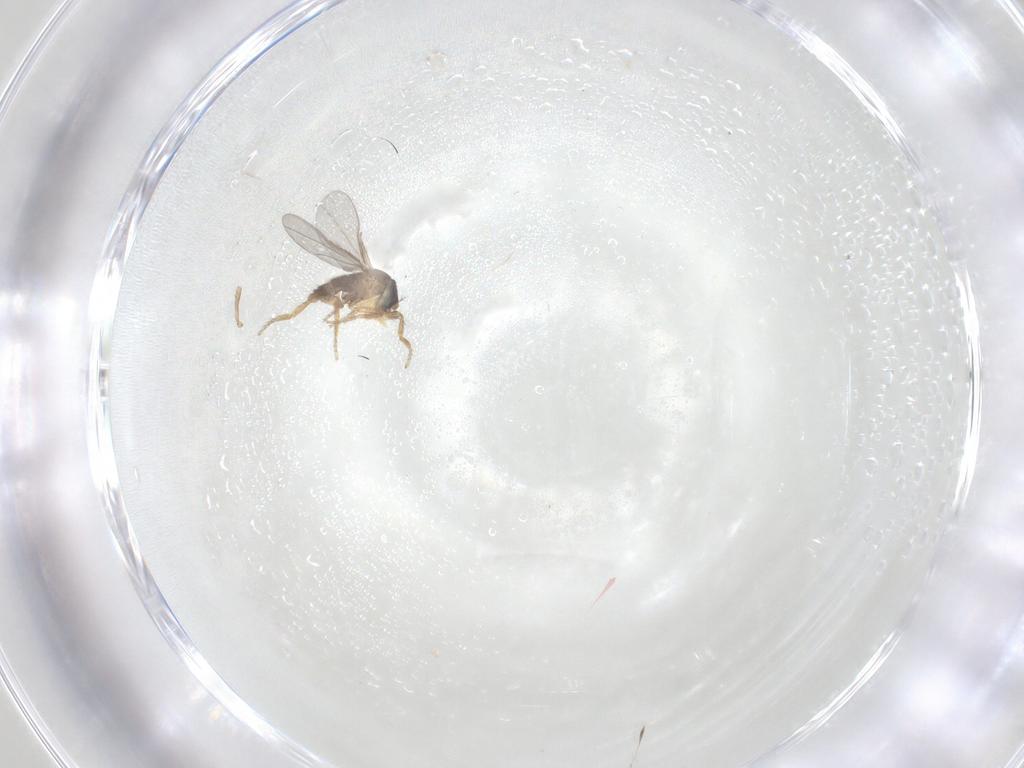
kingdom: Animalia
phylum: Arthropoda
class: Insecta
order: Diptera
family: Phoridae
